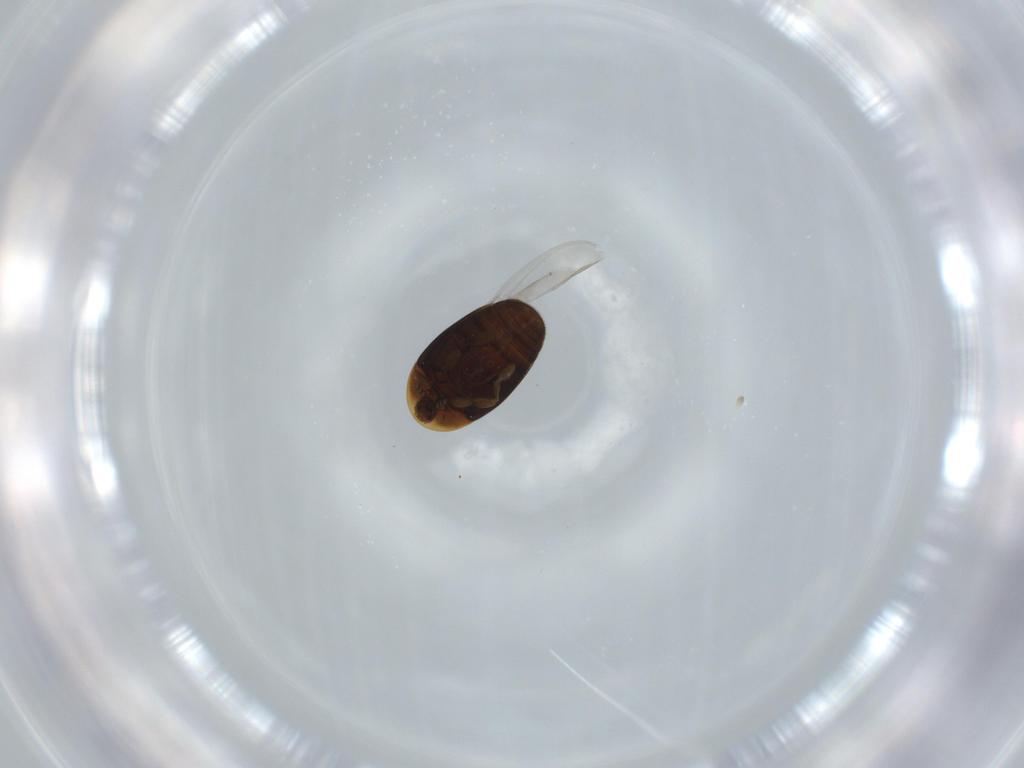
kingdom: Animalia
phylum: Arthropoda
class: Insecta
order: Coleoptera
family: Corylophidae
